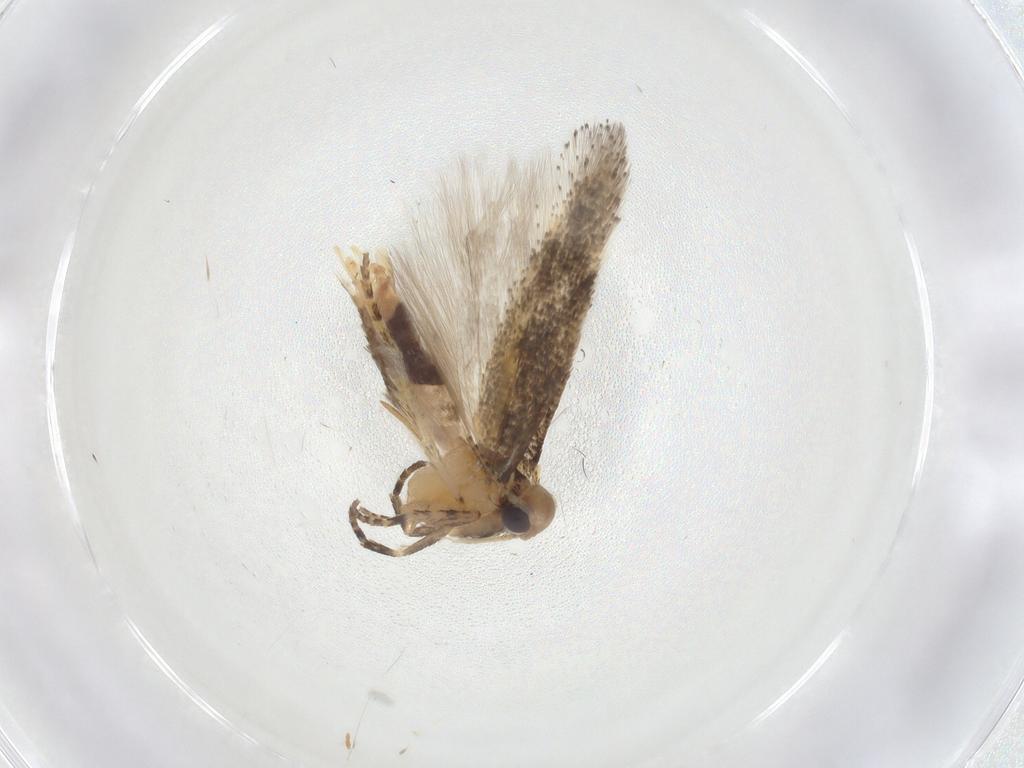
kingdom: Animalia
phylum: Arthropoda
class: Insecta
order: Lepidoptera
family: Gelechiidae
